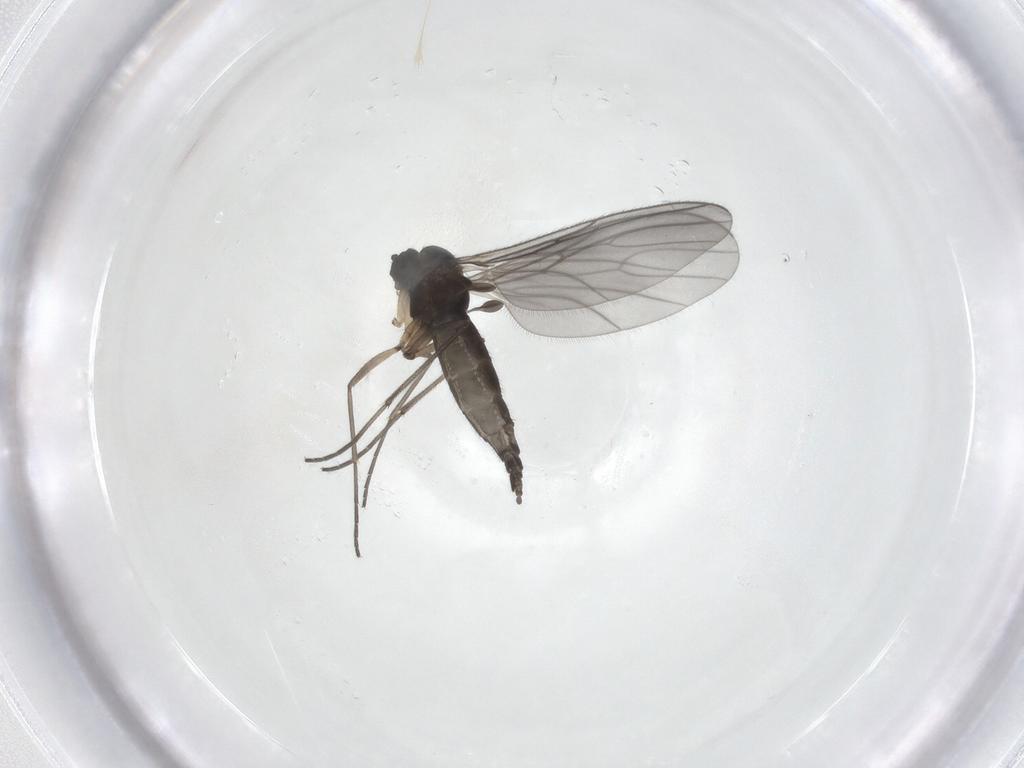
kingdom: Animalia
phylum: Arthropoda
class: Insecta
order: Diptera
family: Sciaridae
